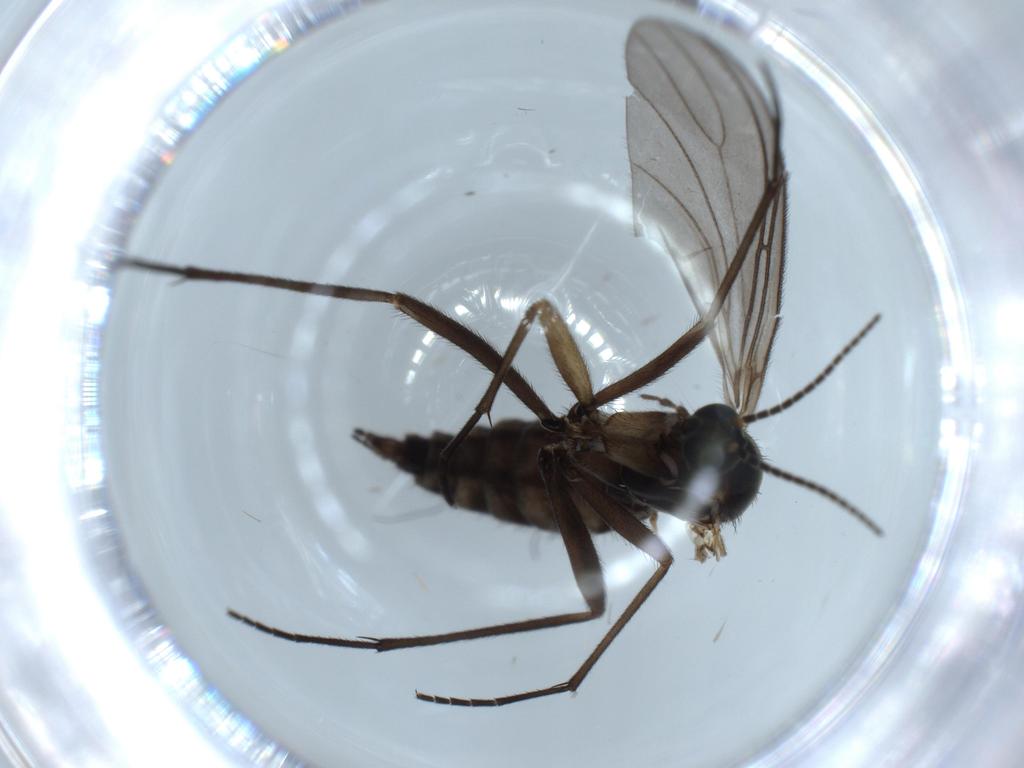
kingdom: Animalia
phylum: Arthropoda
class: Insecta
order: Diptera
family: Sciaridae
